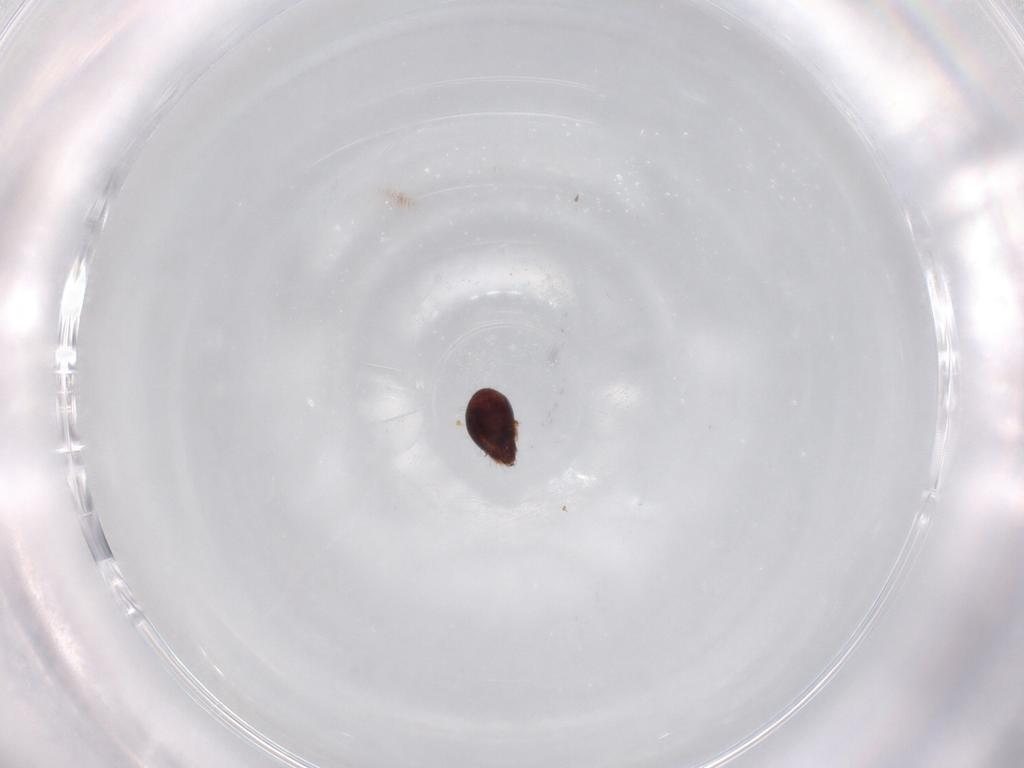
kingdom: Animalia
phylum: Arthropoda
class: Arachnida
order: Sarcoptiformes
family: Humerobatidae
